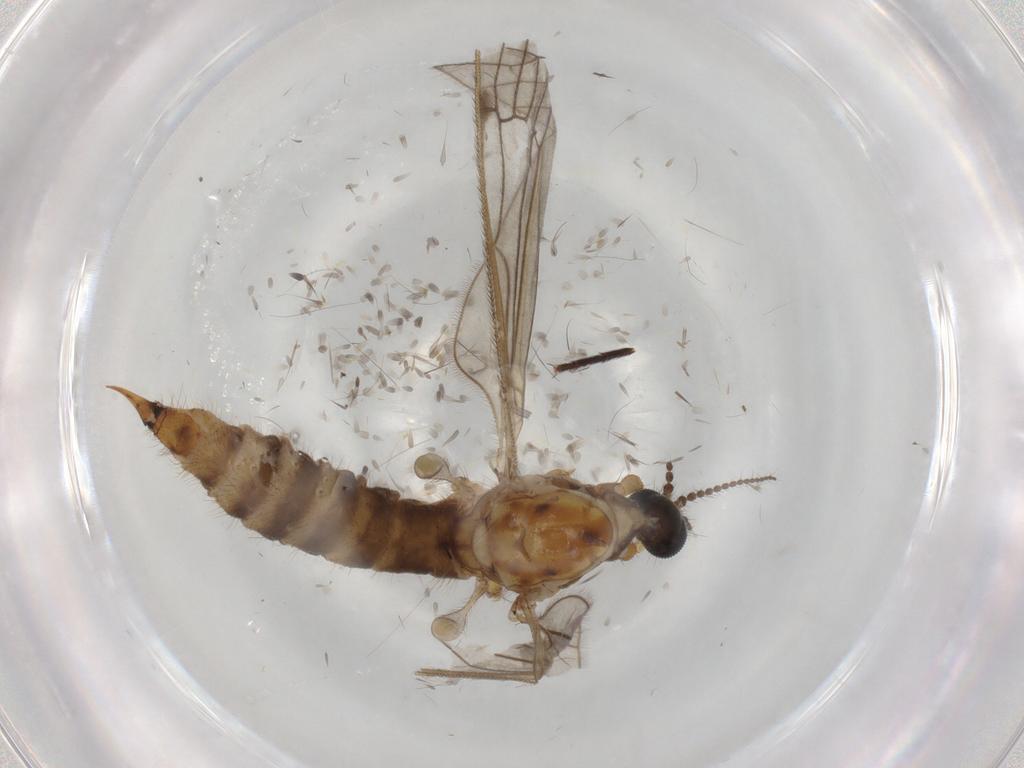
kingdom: Animalia
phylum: Arthropoda
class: Insecta
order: Diptera
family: Limoniidae
